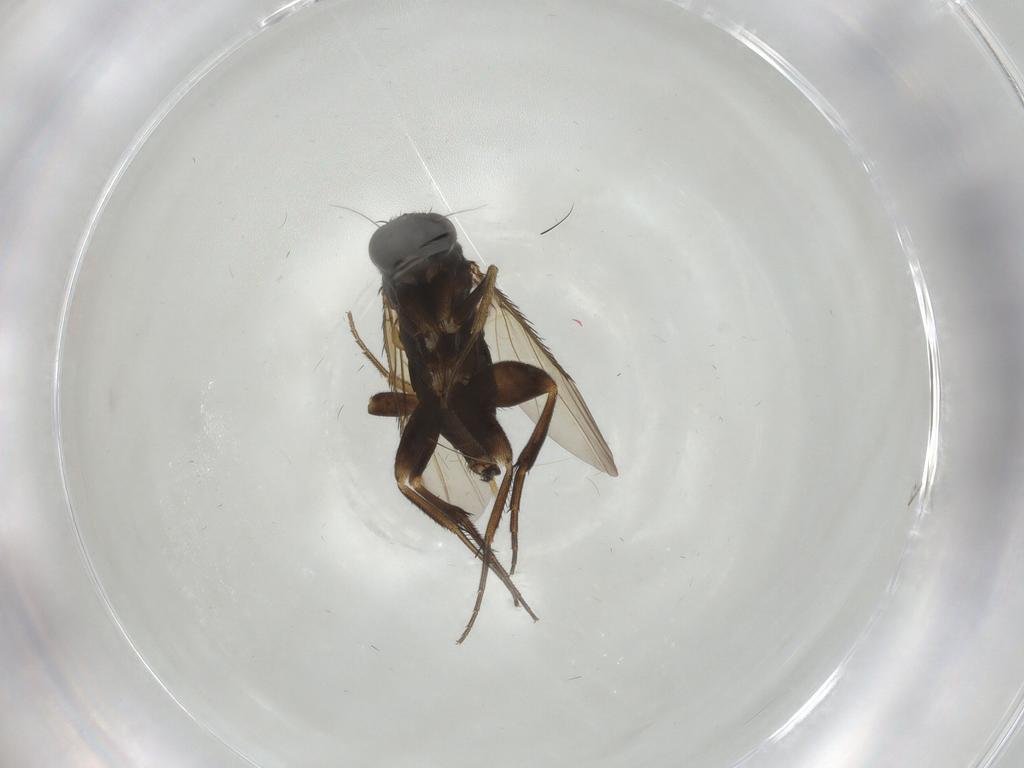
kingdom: Animalia
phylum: Arthropoda
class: Insecta
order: Diptera
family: Phoridae
